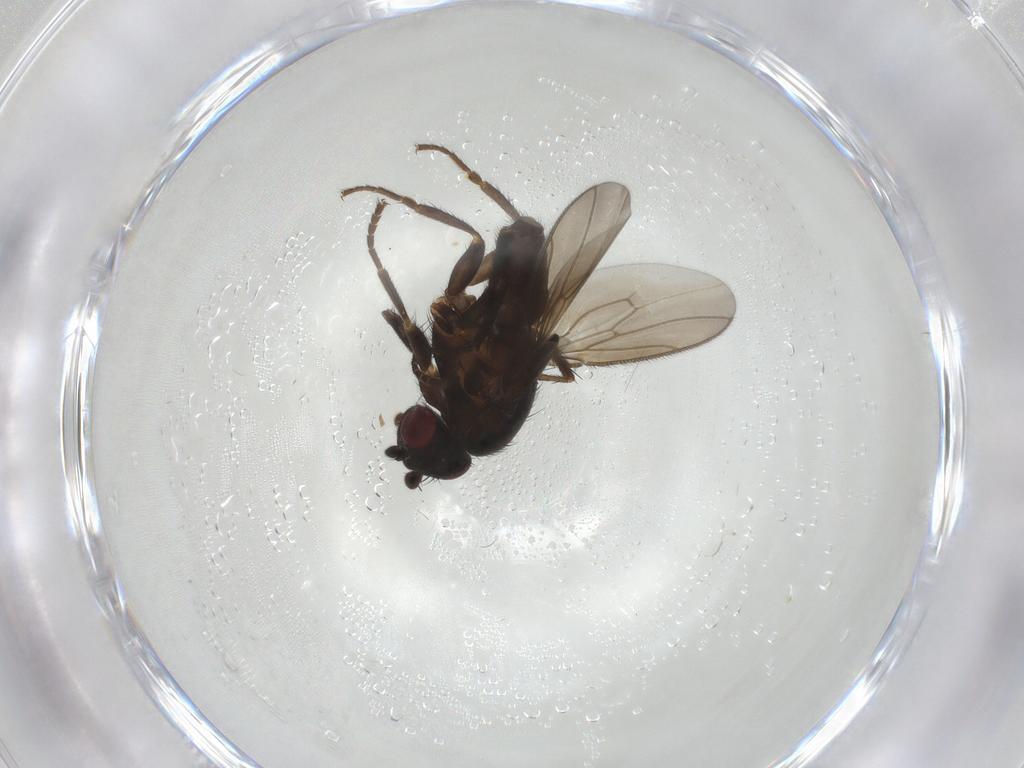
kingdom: Animalia
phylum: Arthropoda
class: Insecta
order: Diptera
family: Sphaeroceridae
